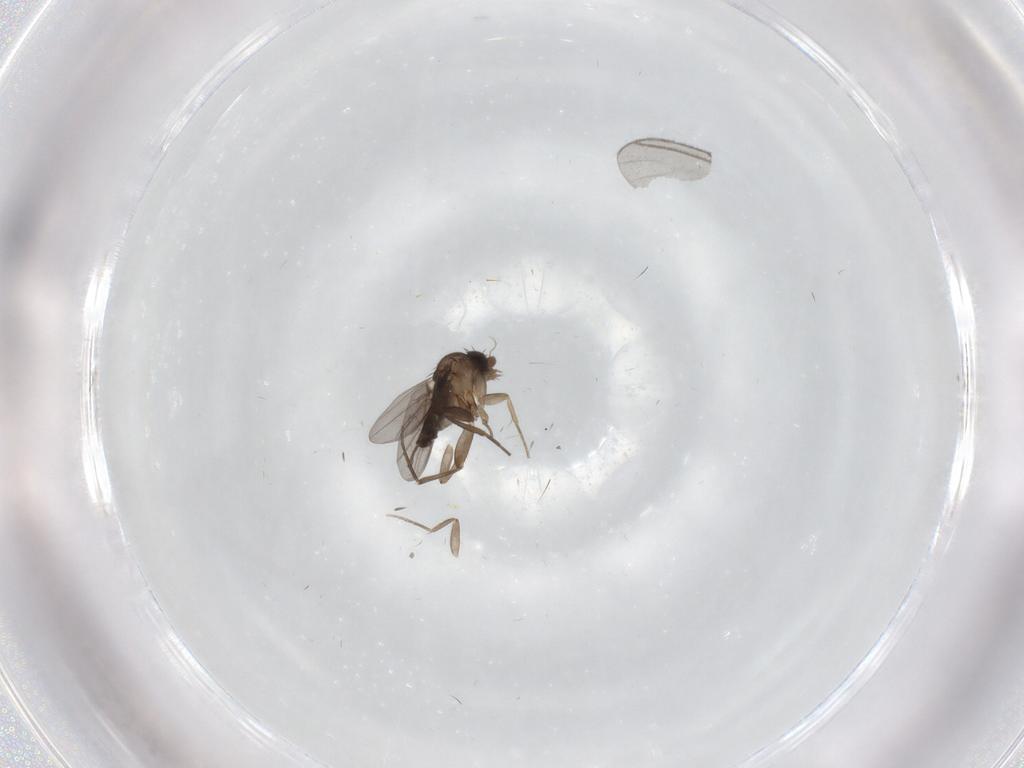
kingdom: Animalia
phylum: Arthropoda
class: Insecta
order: Diptera
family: Phoridae
